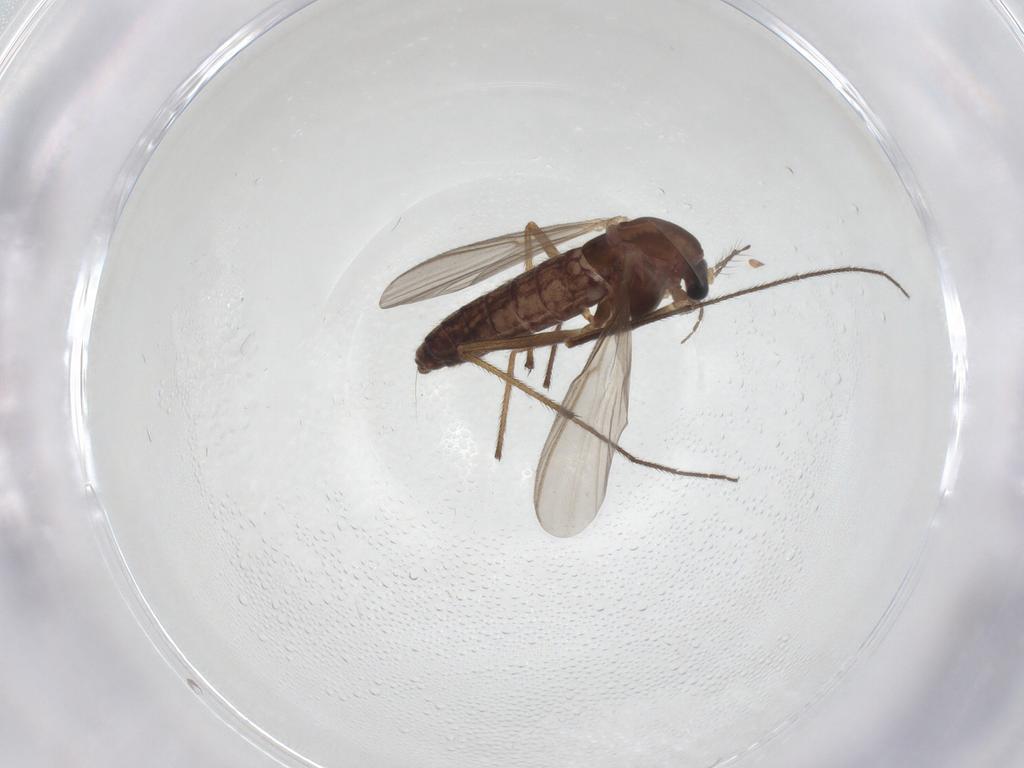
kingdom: Animalia
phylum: Arthropoda
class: Insecta
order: Diptera
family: Chironomidae
